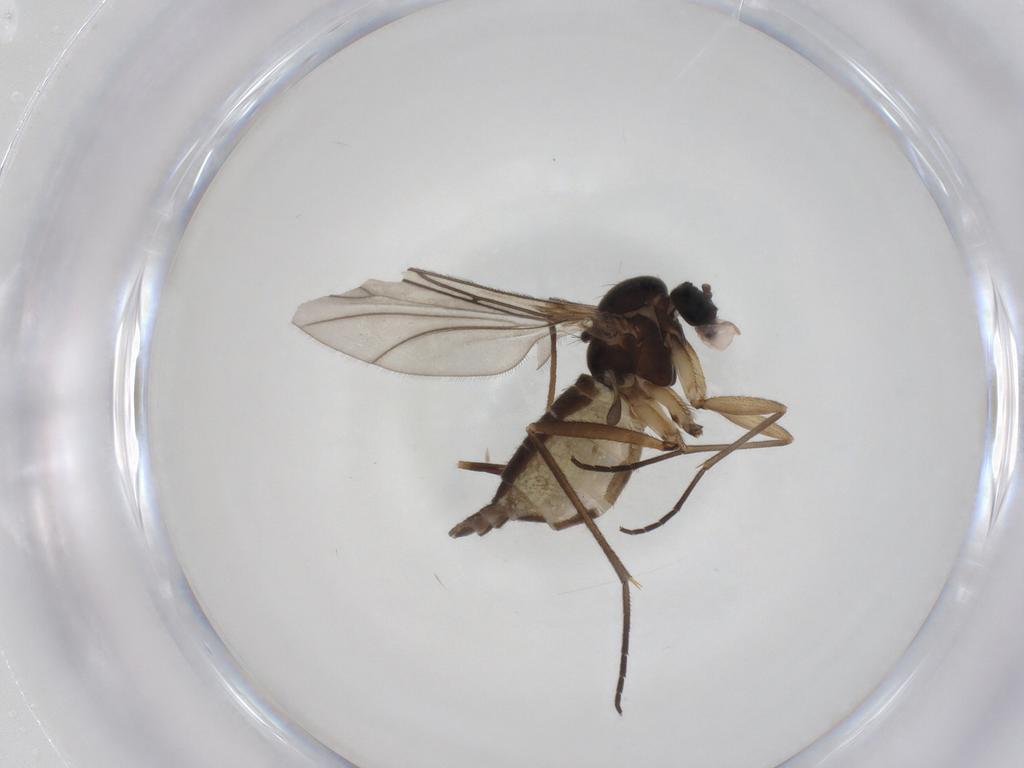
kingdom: Animalia
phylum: Arthropoda
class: Insecta
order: Diptera
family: Sciaridae
